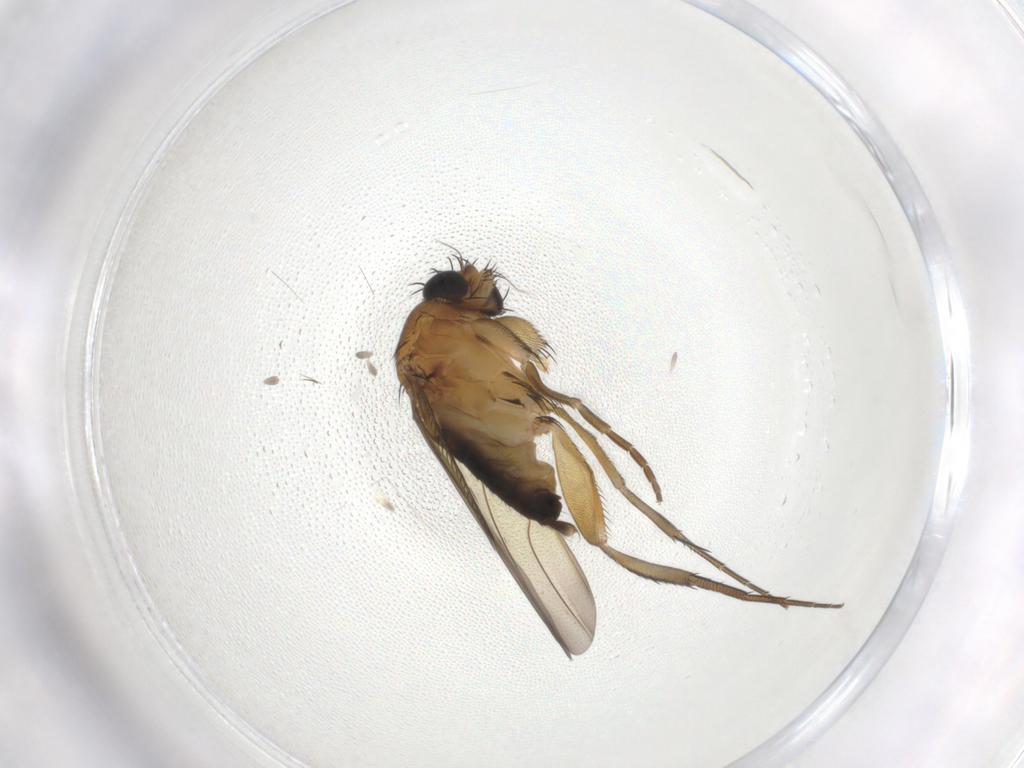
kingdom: Animalia
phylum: Arthropoda
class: Insecta
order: Diptera
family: Phoridae
